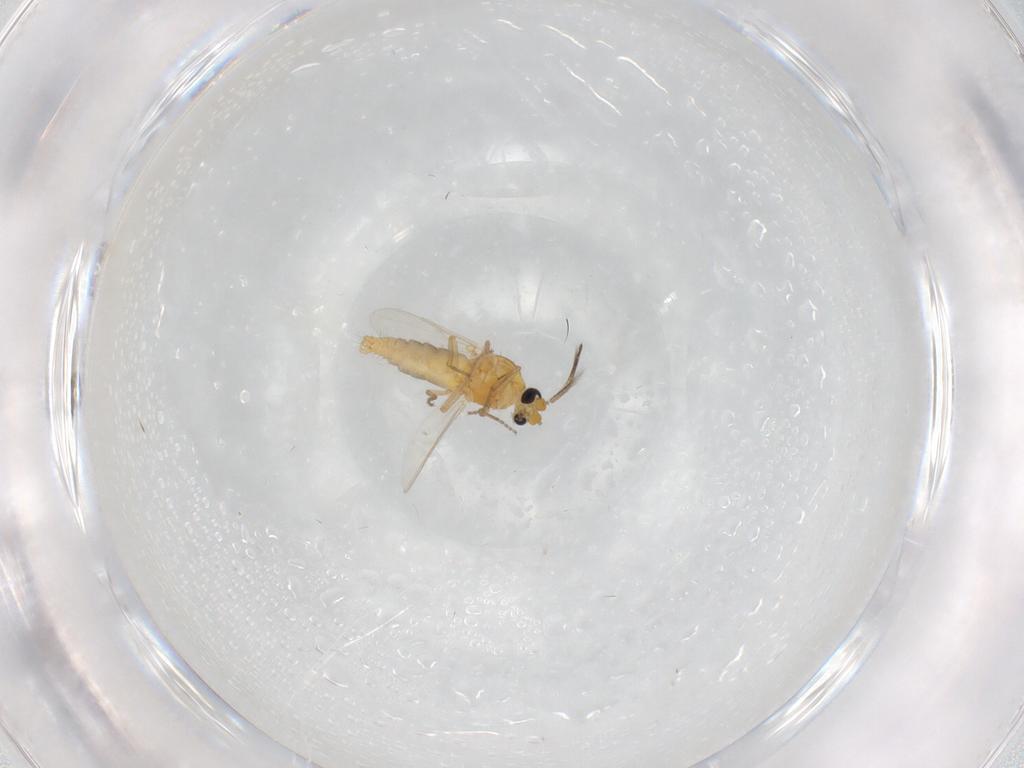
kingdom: Animalia
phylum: Arthropoda
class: Insecta
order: Diptera
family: Ceratopogonidae
